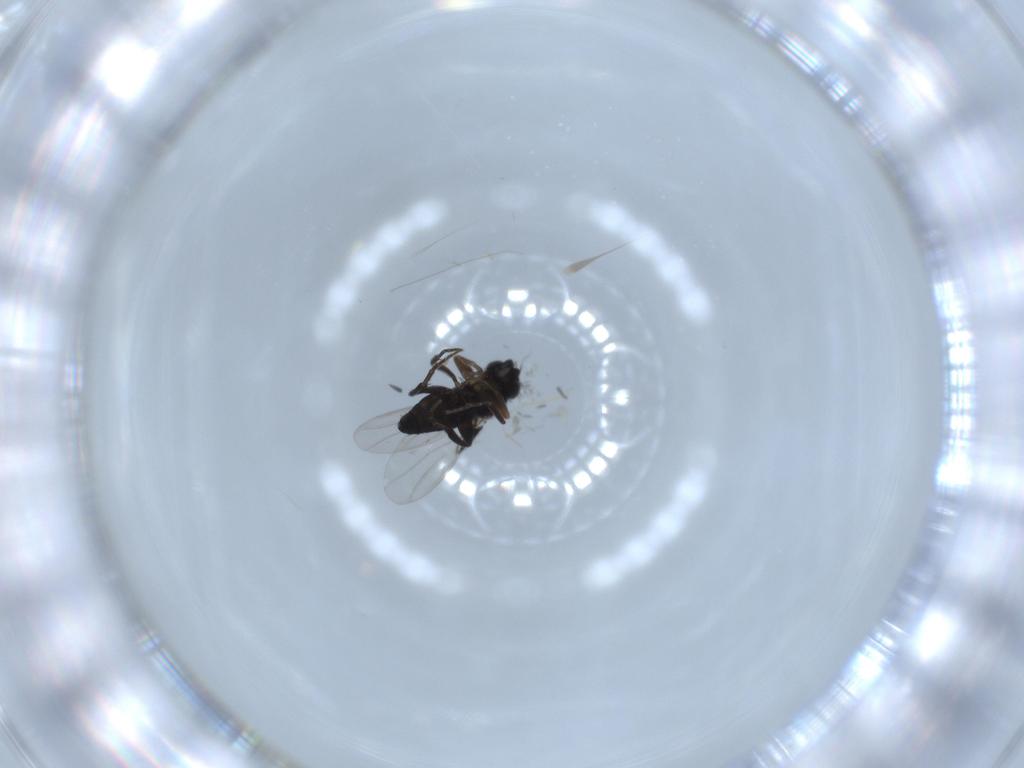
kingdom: Animalia
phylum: Arthropoda
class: Insecta
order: Diptera
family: Phoridae
